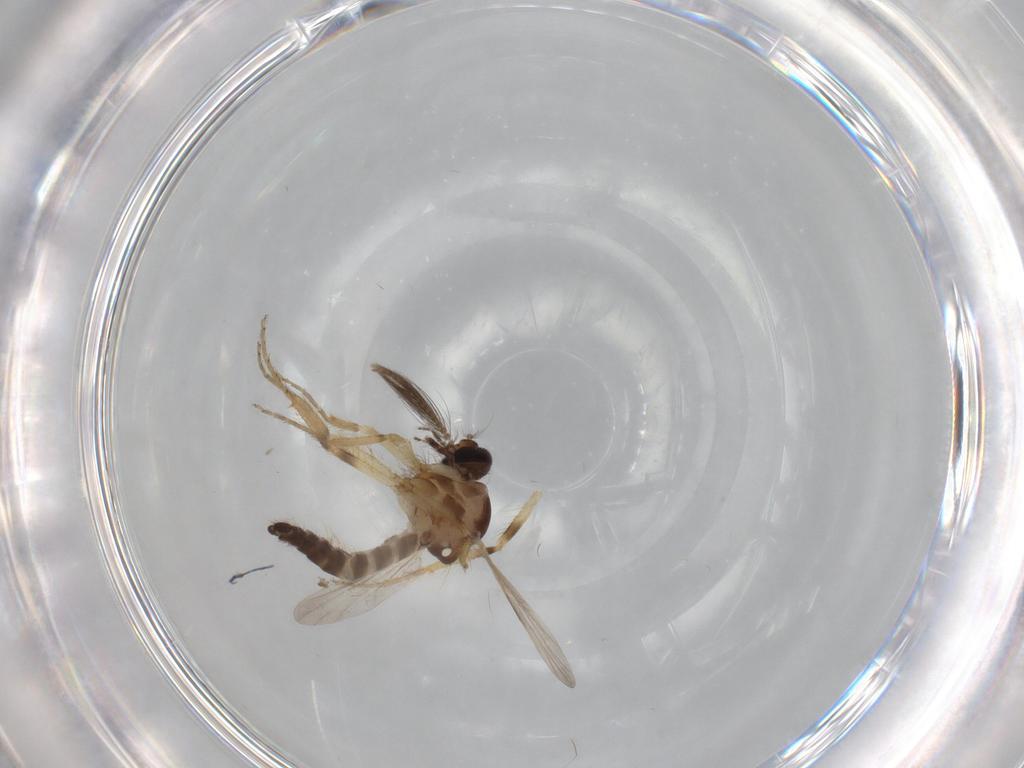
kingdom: Animalia
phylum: Arthropoda
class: Insecta
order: Diptera
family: Ceratopogonidae
